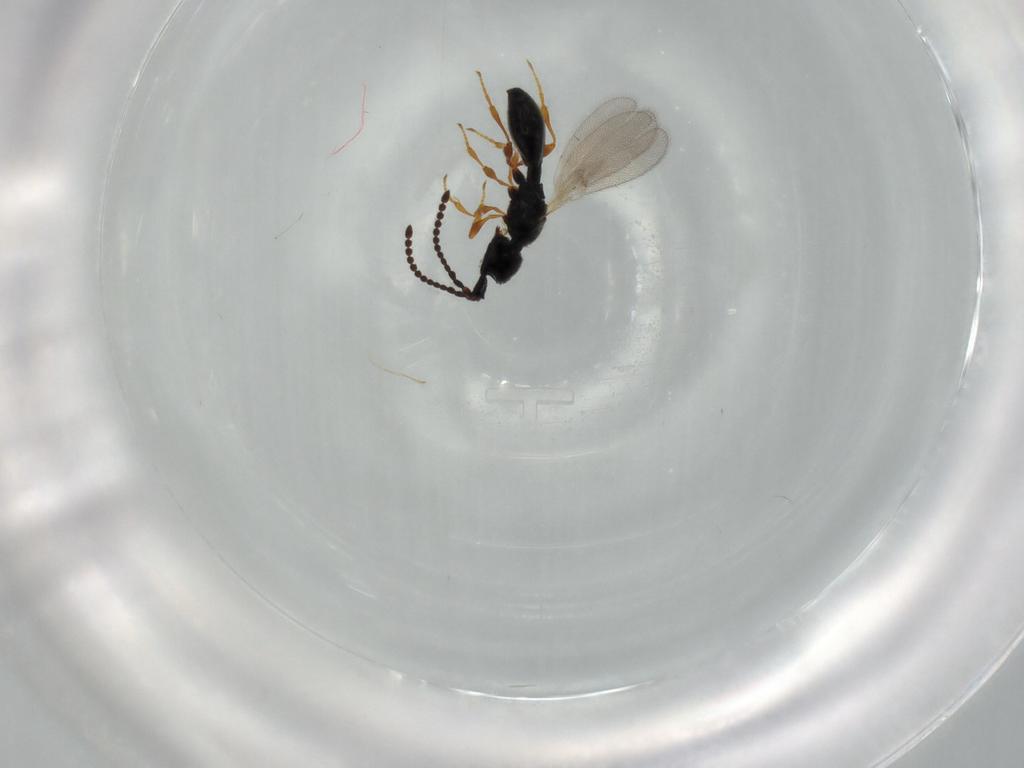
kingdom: Animalia
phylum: Arthropoda
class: Insecta
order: Hymenoptera
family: Diapriidae
